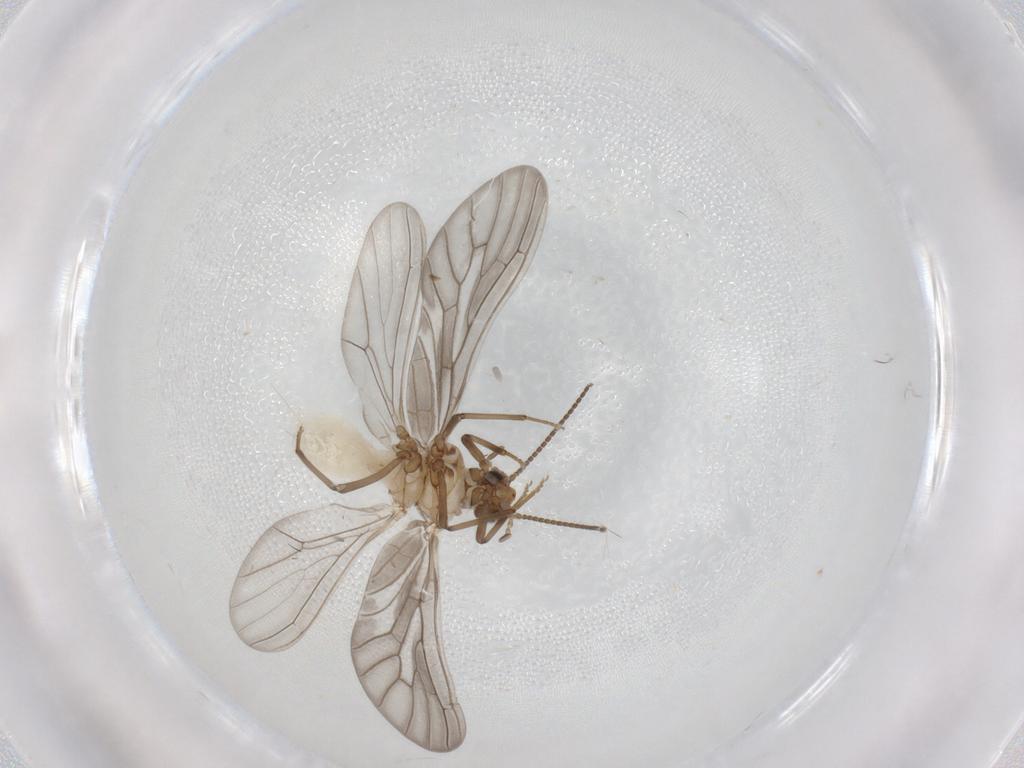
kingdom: Animalia
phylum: Arthropoda
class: Insecta
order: Neuroptera
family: Coniopterygidae
